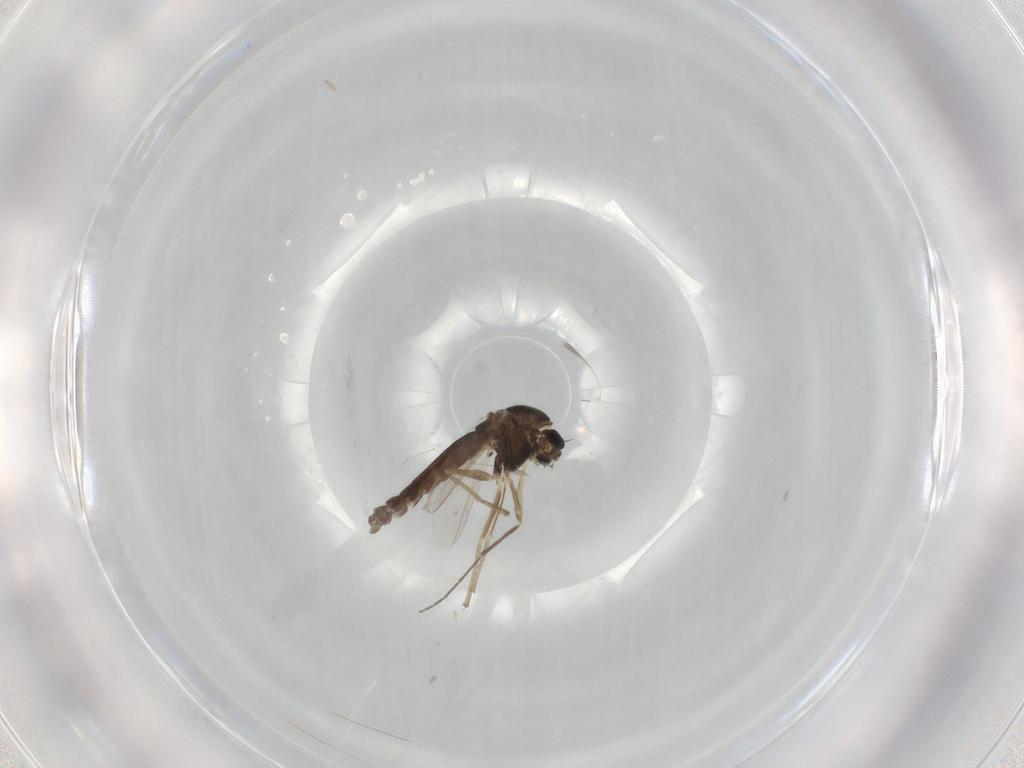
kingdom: Animalia
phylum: Arthropoda
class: Insecta
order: Diptera
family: Chironomidae
